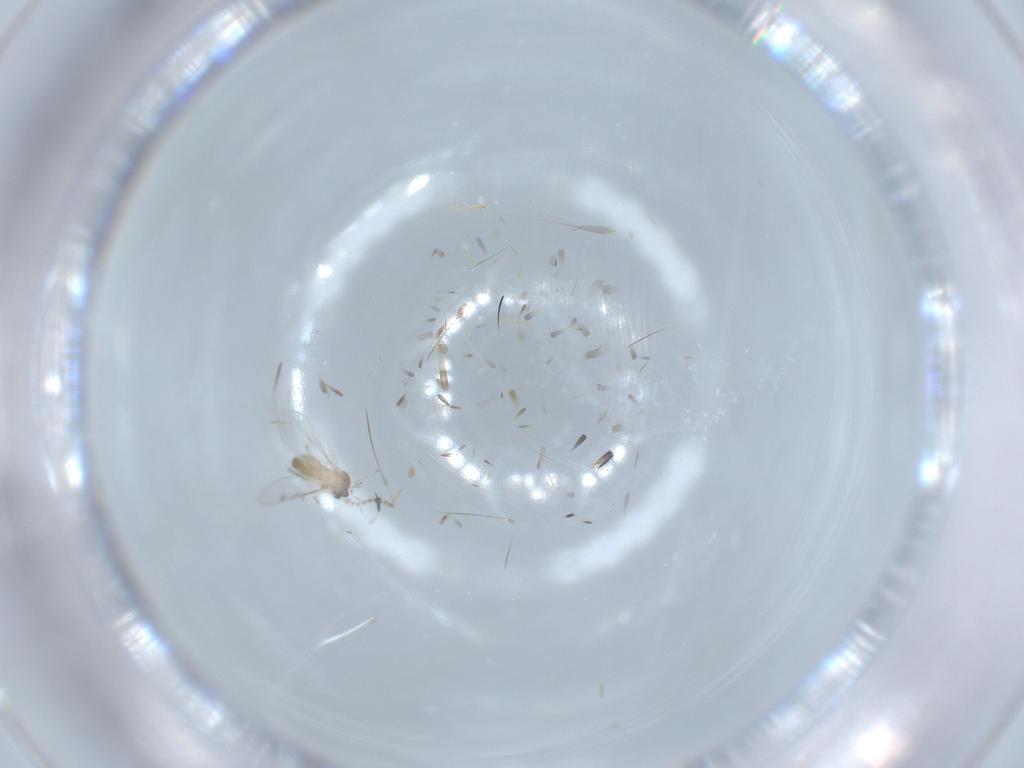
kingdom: Animalia
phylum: Arthropoda
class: Insecta
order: Diptera
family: Cecidomyiidae
